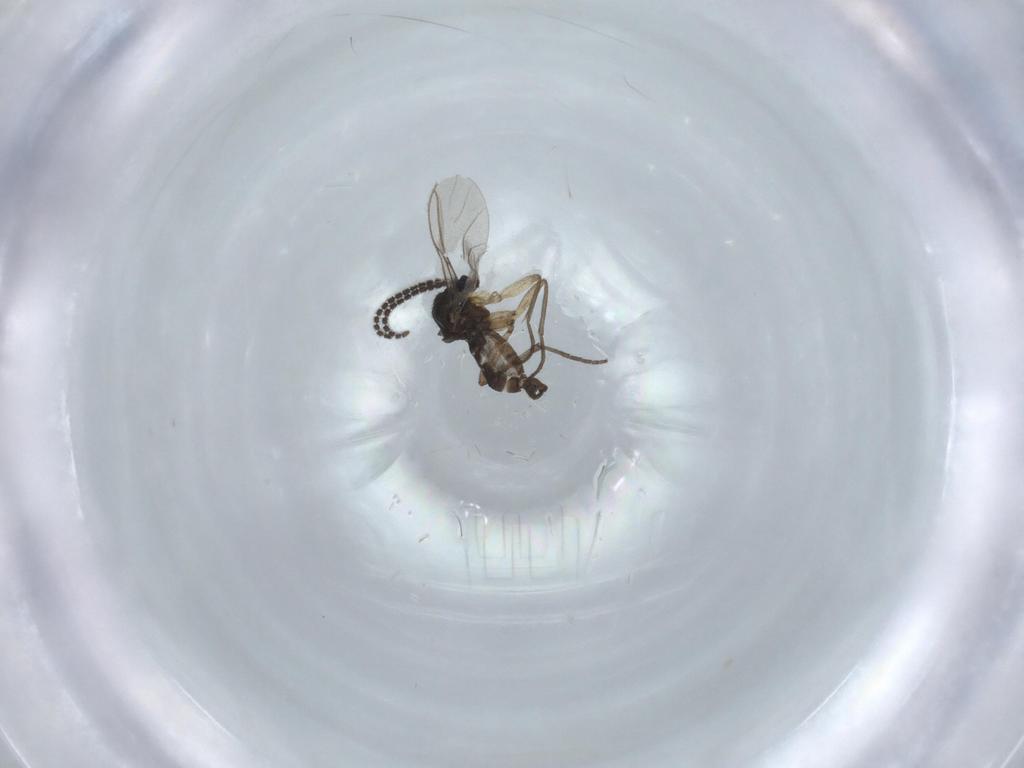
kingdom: Animalia
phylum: Arthropoda
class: Insecta
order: Diptera
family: Sciaridae
